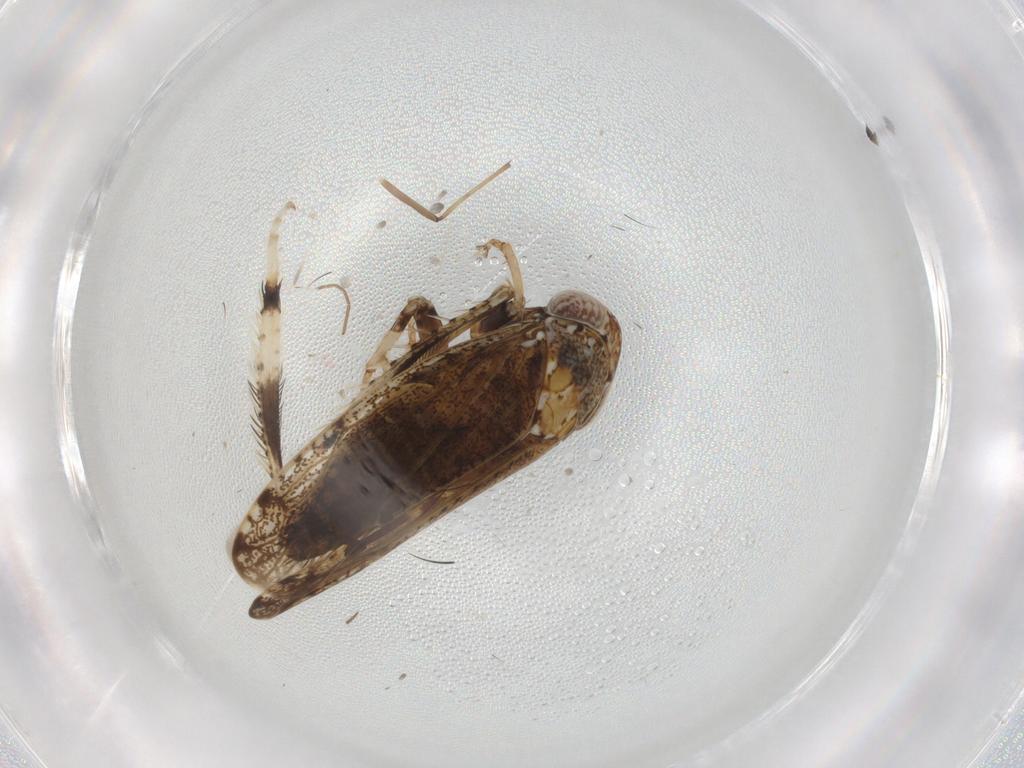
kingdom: Animalia
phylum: Arthropoda
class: Insecta
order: Hemiptera
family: Cicadellidae
